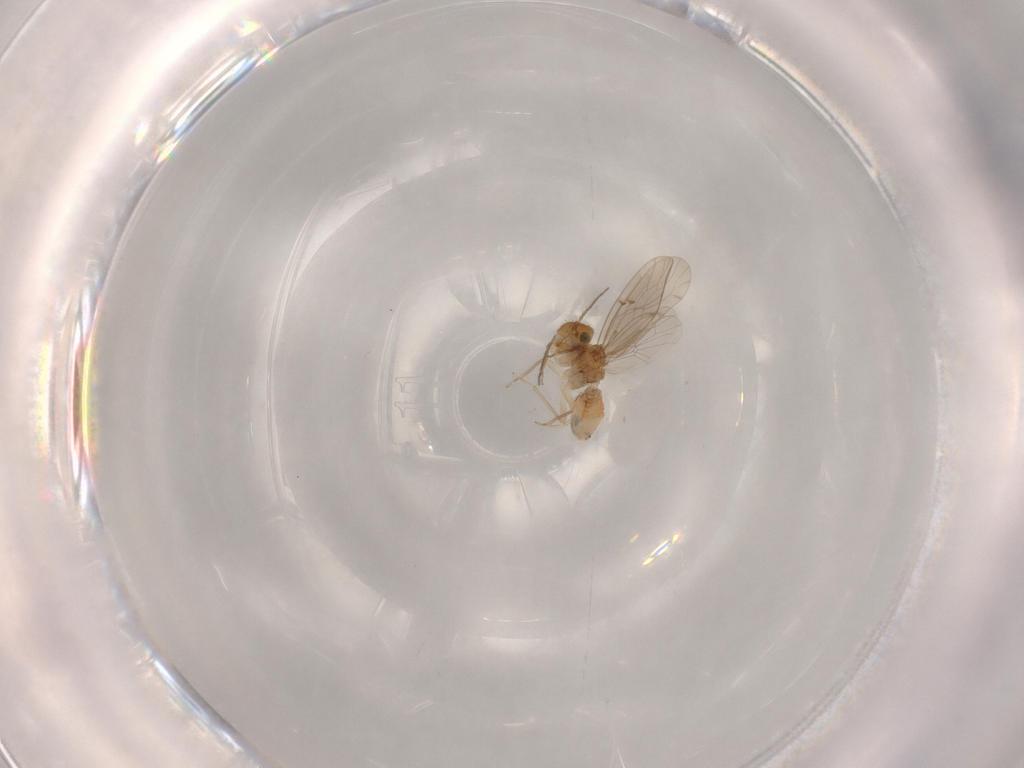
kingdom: Animalia
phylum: Arthropoda
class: Insecta
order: Psocodea
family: Ectopsocidae
